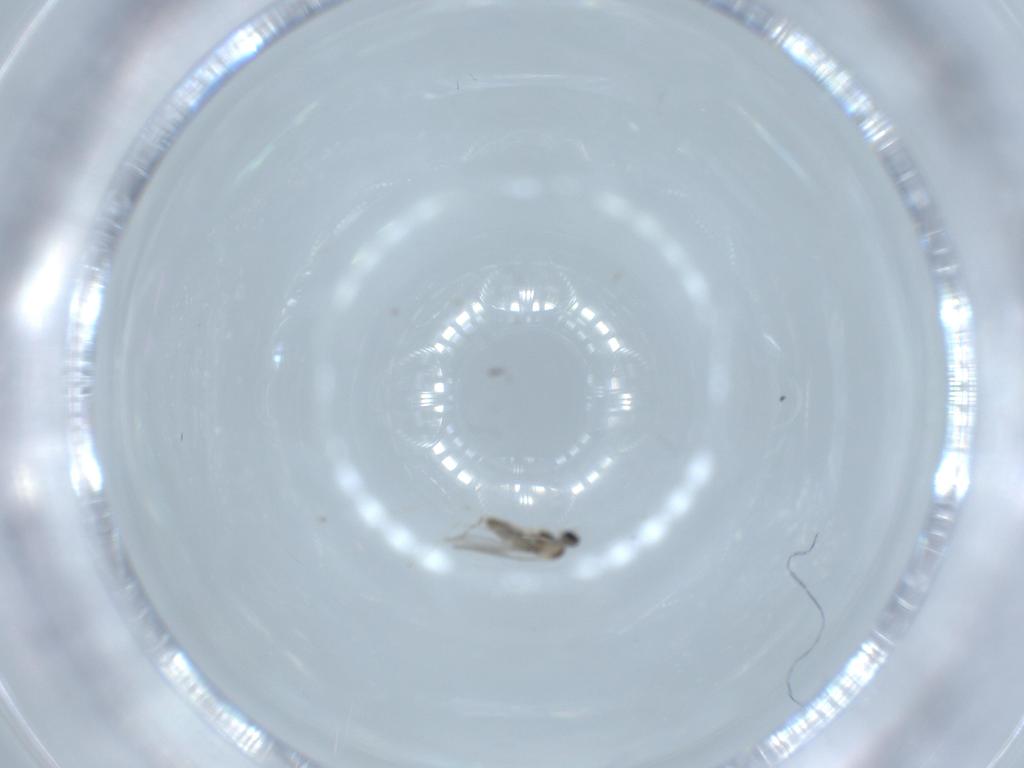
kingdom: Animalia
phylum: Arthropoda
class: Insecta
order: Diptera
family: Cecidomyiidae
